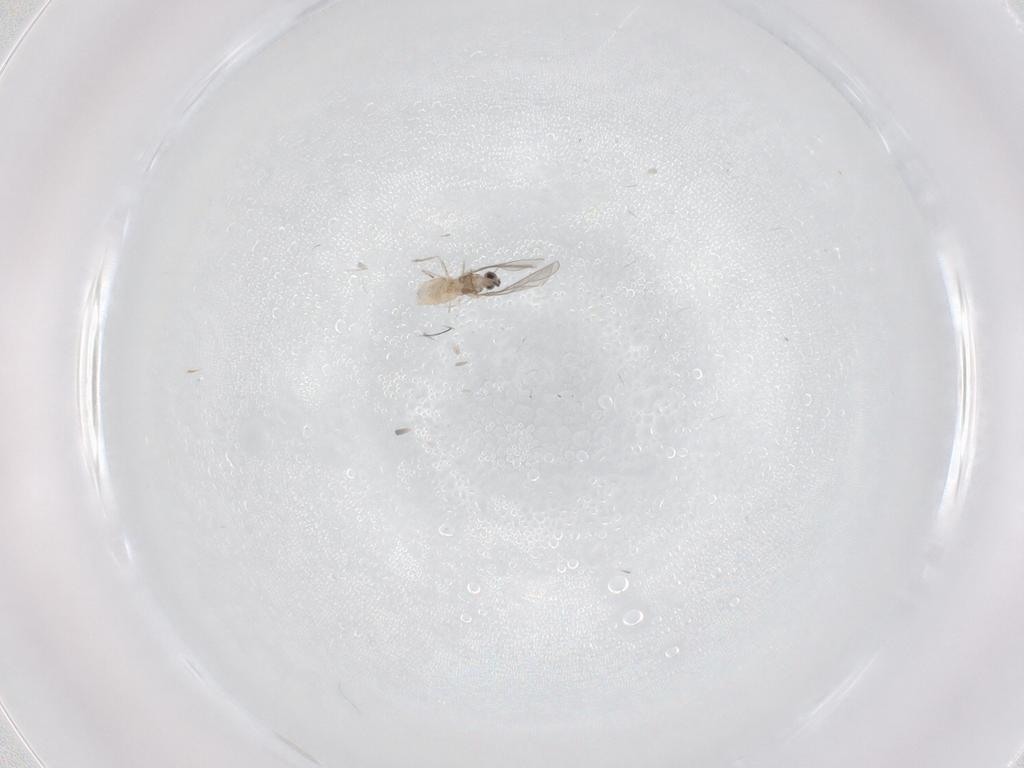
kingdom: Animalia
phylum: Arthropoda
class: Insecta
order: Diptera
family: Cecidomyiidae
